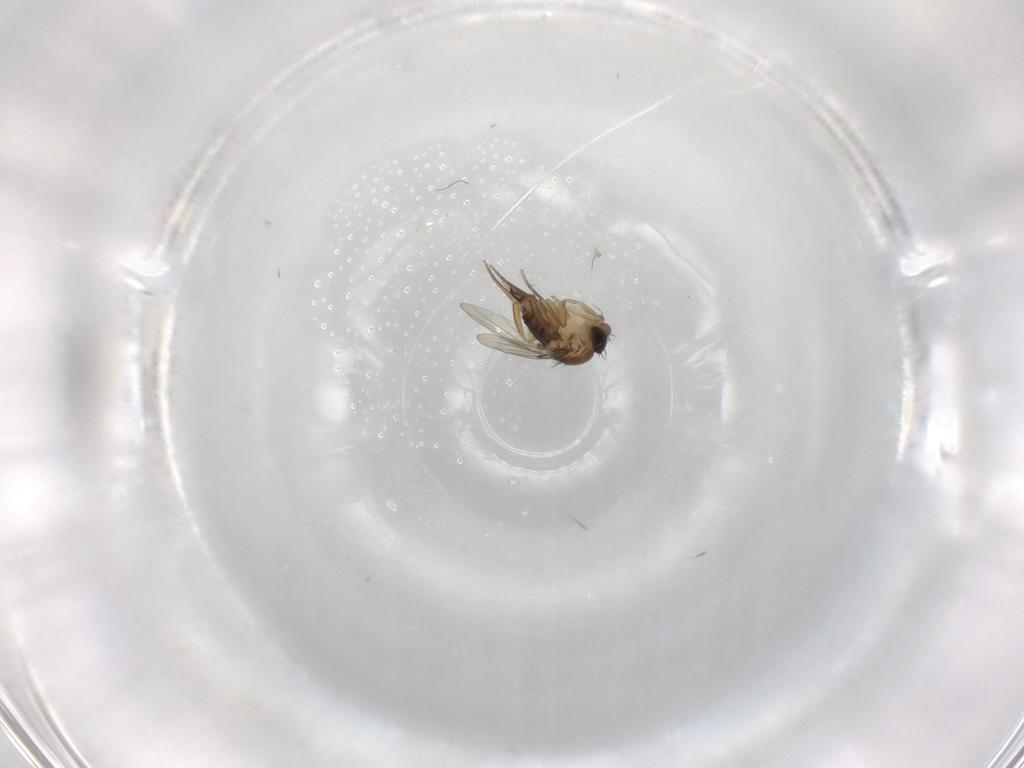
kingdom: Animalia
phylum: Arthropoda
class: Insecta
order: Diptera
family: Phoridae
